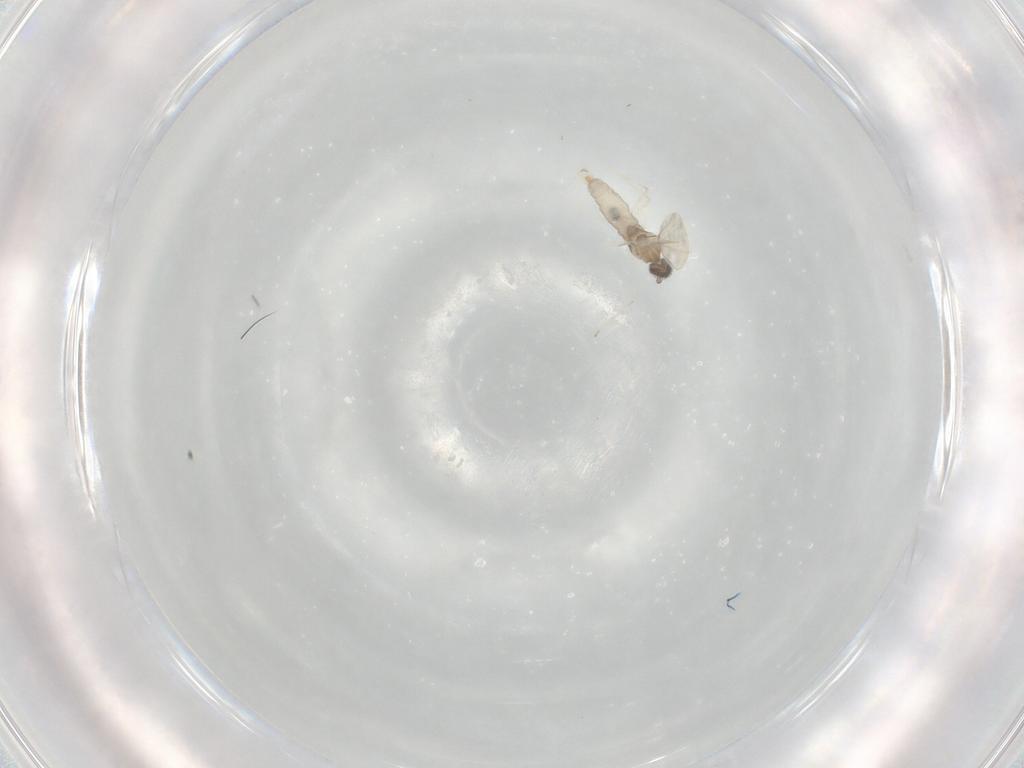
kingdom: Animalia
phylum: Arthropoda
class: Insecta
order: Diptera
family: Cecidomyiidae
